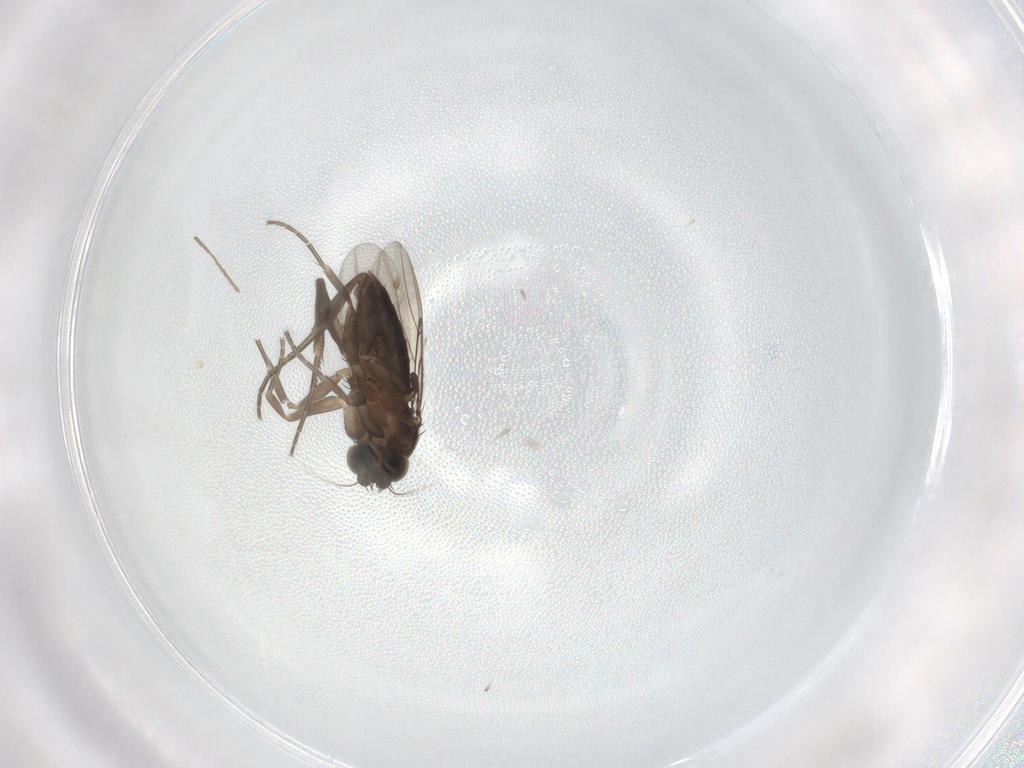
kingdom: Animalia
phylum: Arthropoda
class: Insecta
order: Diptera
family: Phoridae
